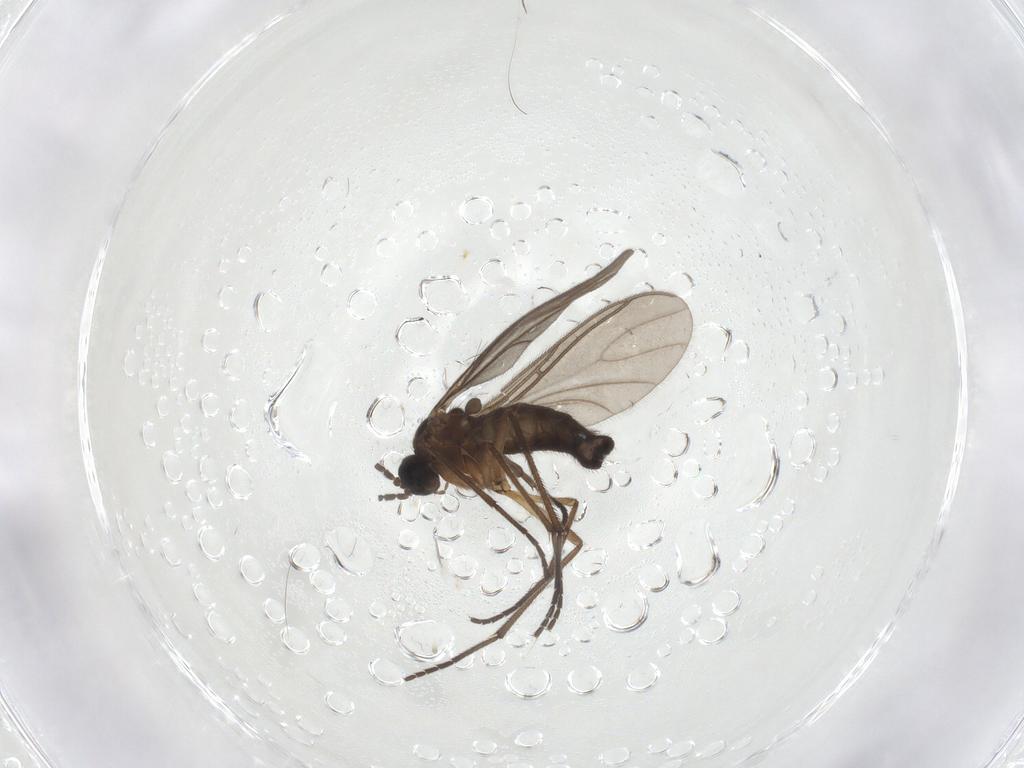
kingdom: Animalia
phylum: Arthropoda
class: Insecta
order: Diptera
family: Sciaridae
